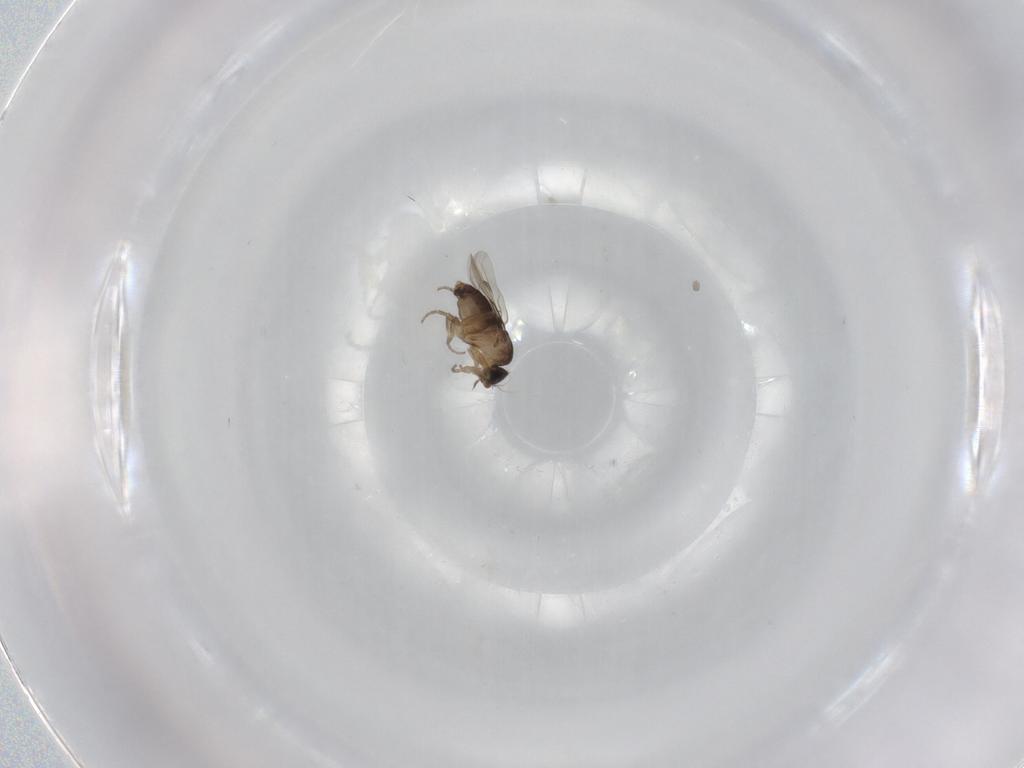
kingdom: Animalia
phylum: Arthropoda
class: Insecta
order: Diptera
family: Phoridae
